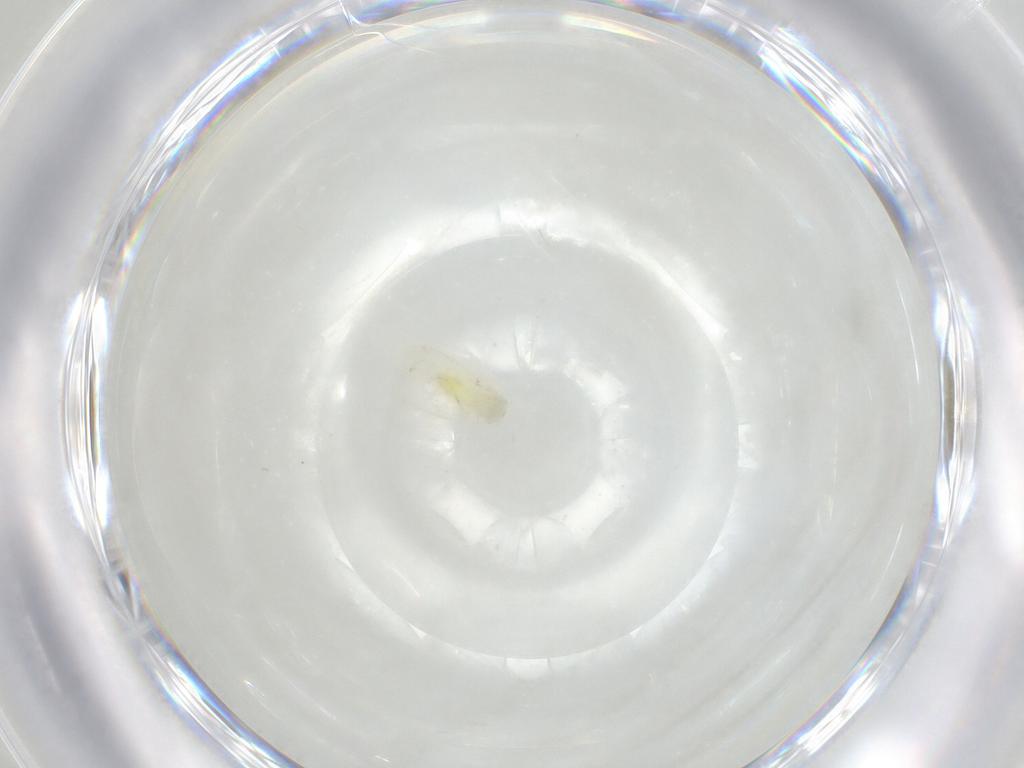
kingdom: Animalia
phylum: Arthropoda
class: Insecta
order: Hemiptera
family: Aleyrodidae
